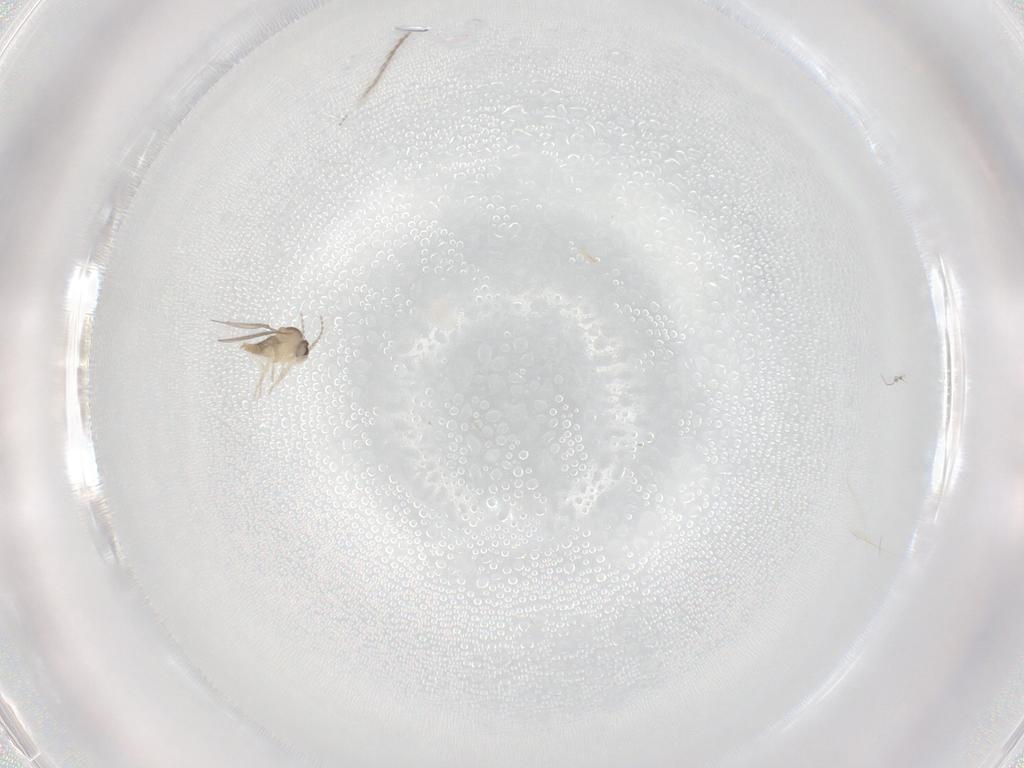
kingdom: Animalia
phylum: Arthropoda
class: Insecta
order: Diptera
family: Cecidomyiidae
